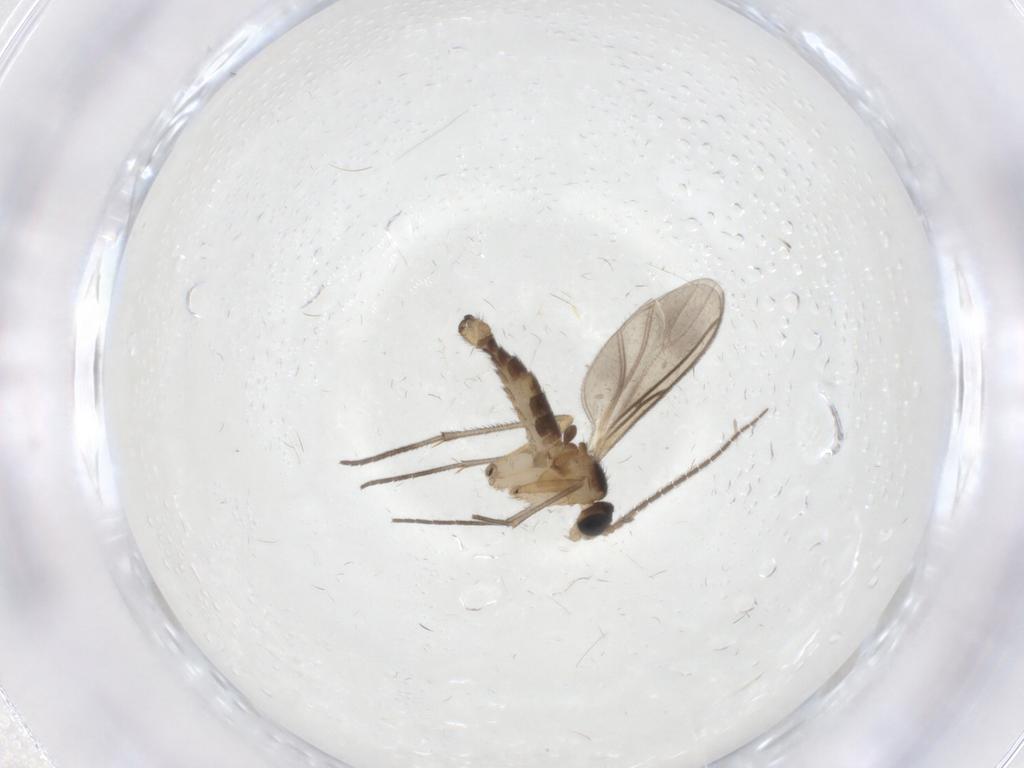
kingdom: Animalia
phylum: Arthropoda
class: Insecta
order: Diptera
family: Sciaridae
